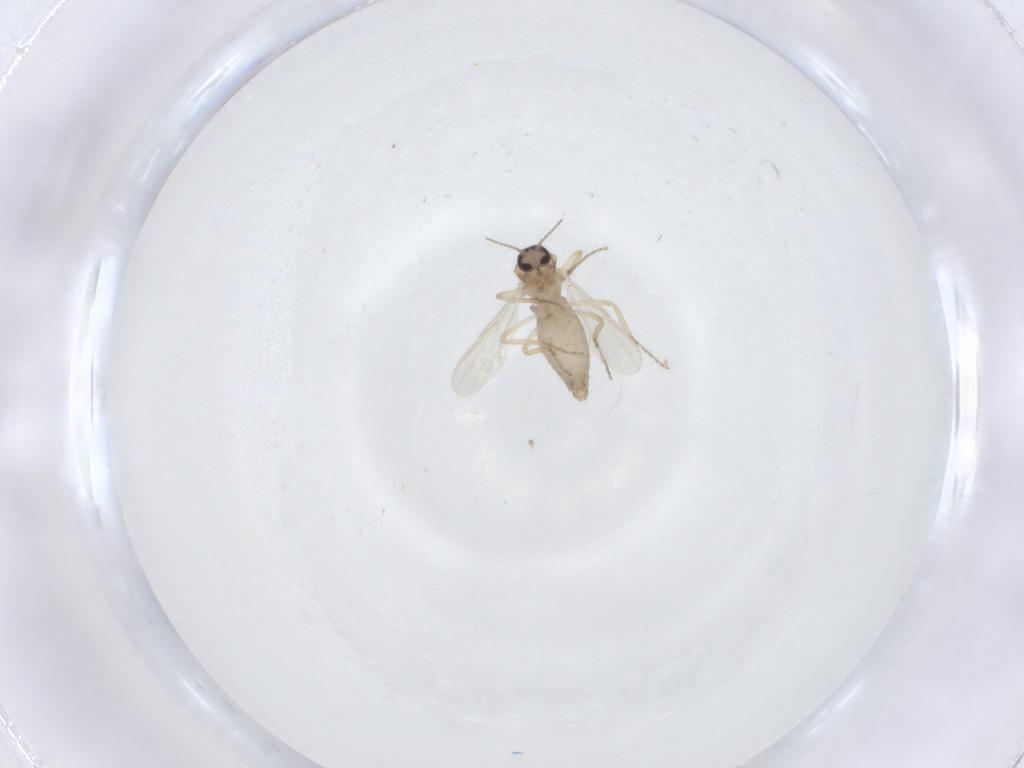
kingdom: Animalia
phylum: Arthropoda
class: Insecta
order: Diptera
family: Ceratopogonidae
